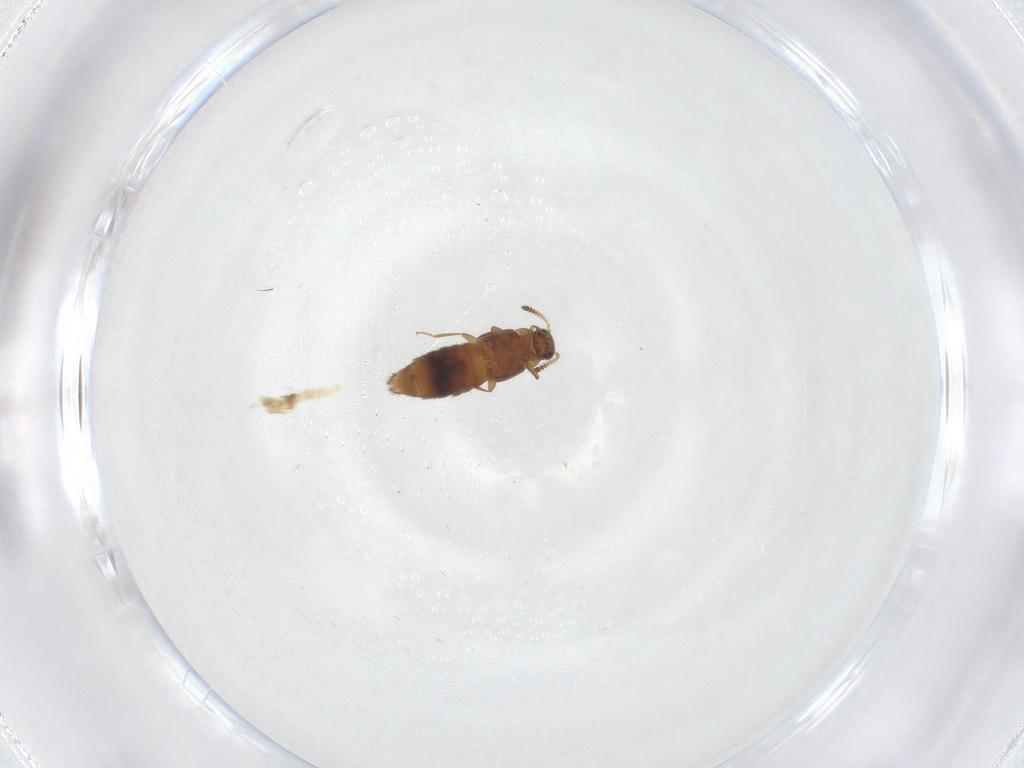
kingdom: Animalia
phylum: Arthropoda
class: Insecta
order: Coleoptera
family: Staphylinidae
